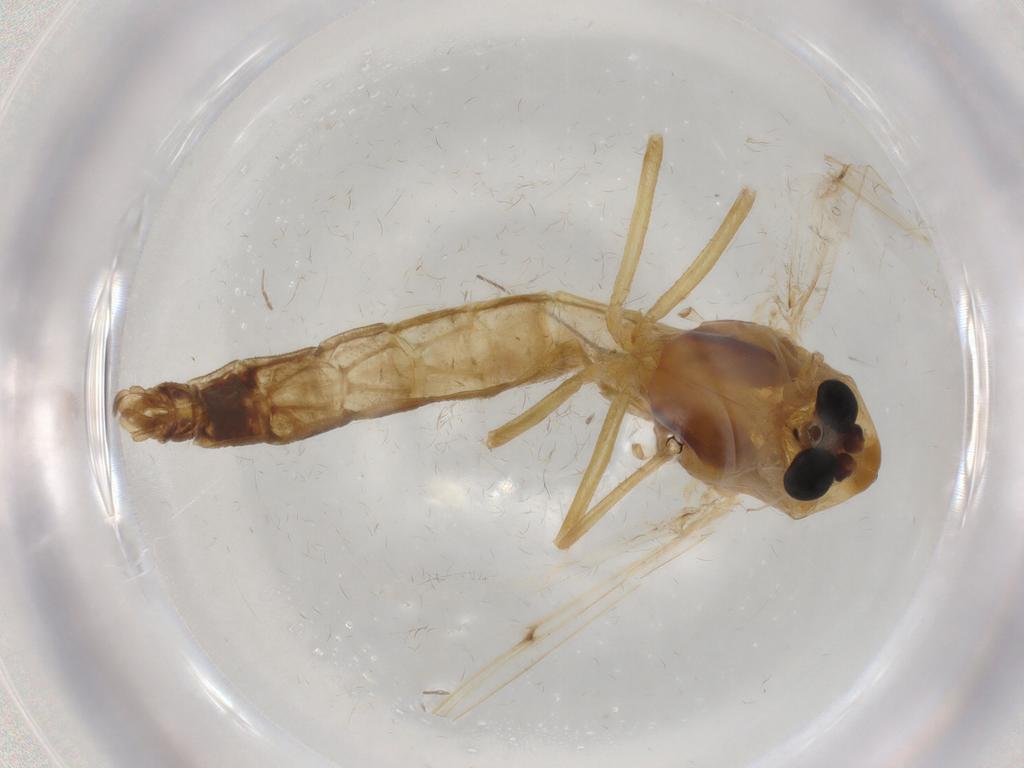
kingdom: Animalia
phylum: Arthropoda
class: Insecta
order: Diptera
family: Cecidomyiidae
